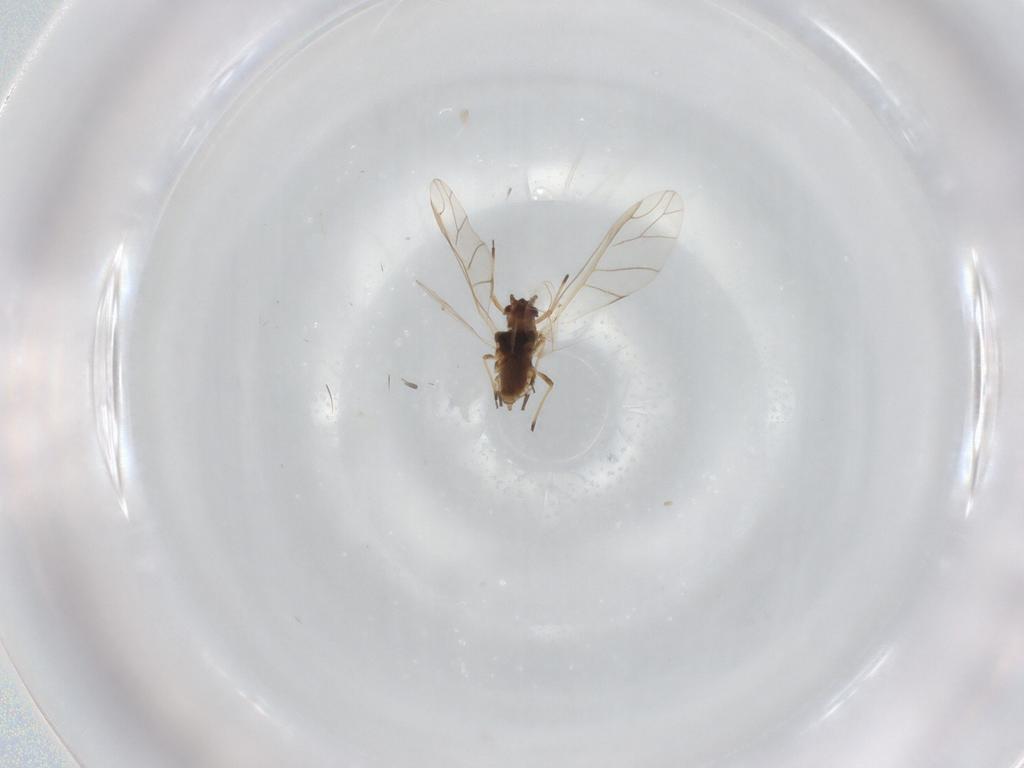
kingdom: Animalia
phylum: Arthropoda
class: Insecta
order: Hemiptera
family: Aphididae
